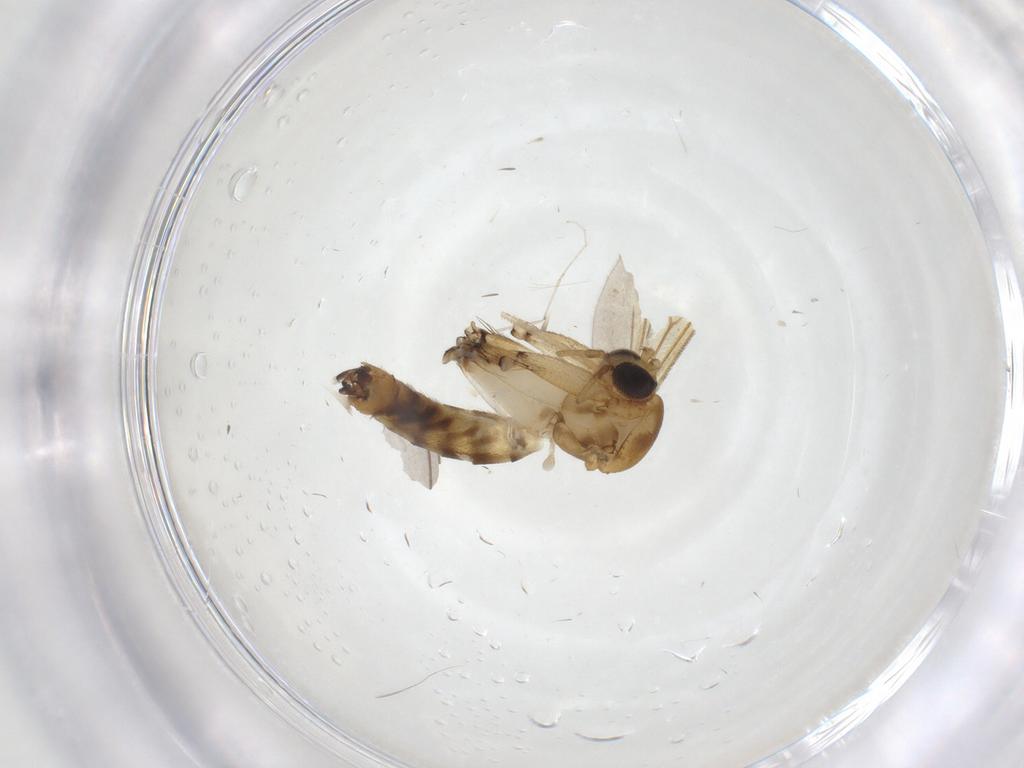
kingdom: Animalia
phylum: Arthropoda
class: Insecta
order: Diptera
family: Mycetophilidae
